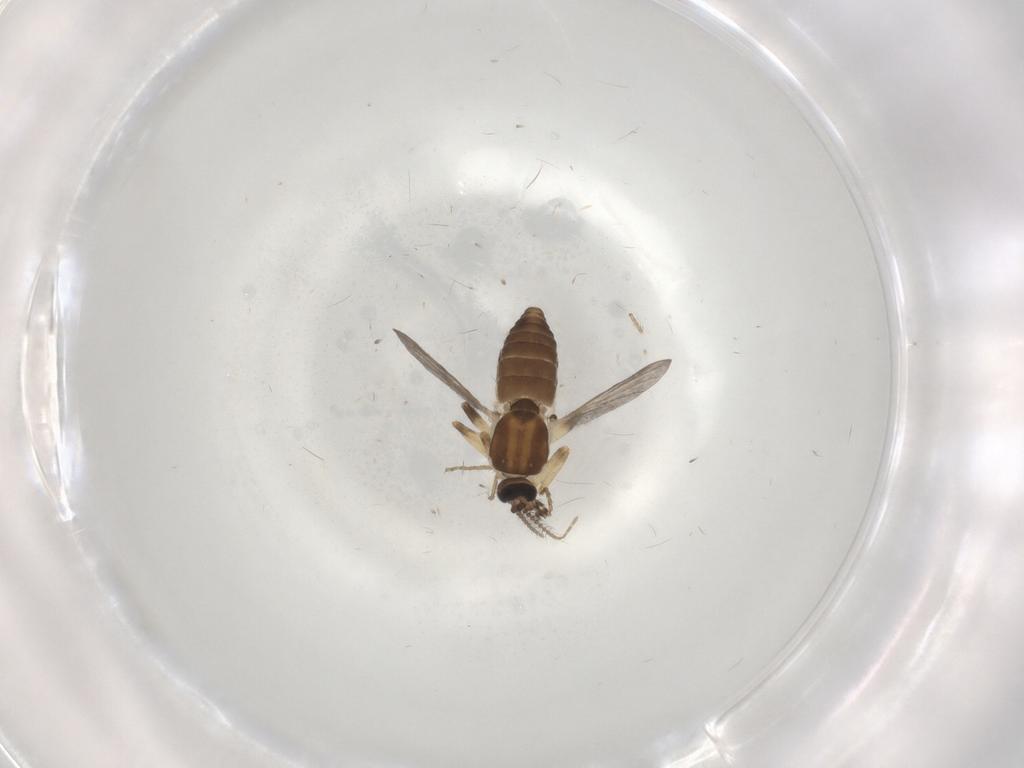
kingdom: Animalia
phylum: Arthropoda
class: Insecta
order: Diptera
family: Ceratopogonidae
